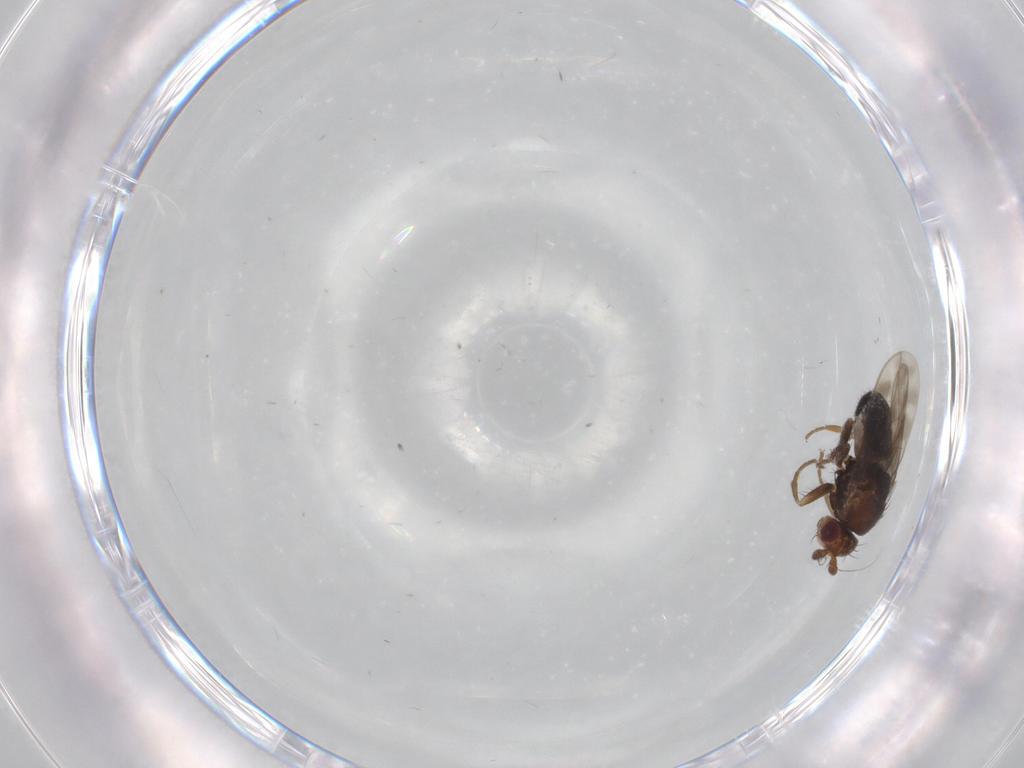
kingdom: Animalia
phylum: Arthropoda
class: Insecta
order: Diptera
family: Sphaeroceridae
